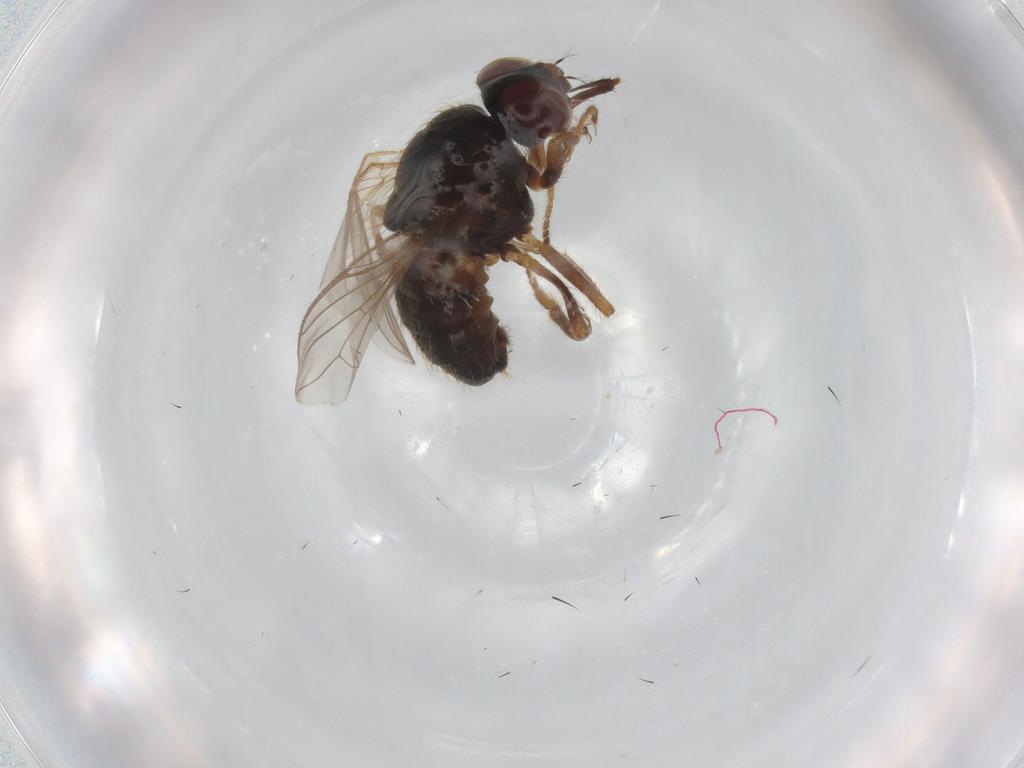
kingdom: Animalia
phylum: Arthropoda
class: Insecta
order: Diptera
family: Muscidae
